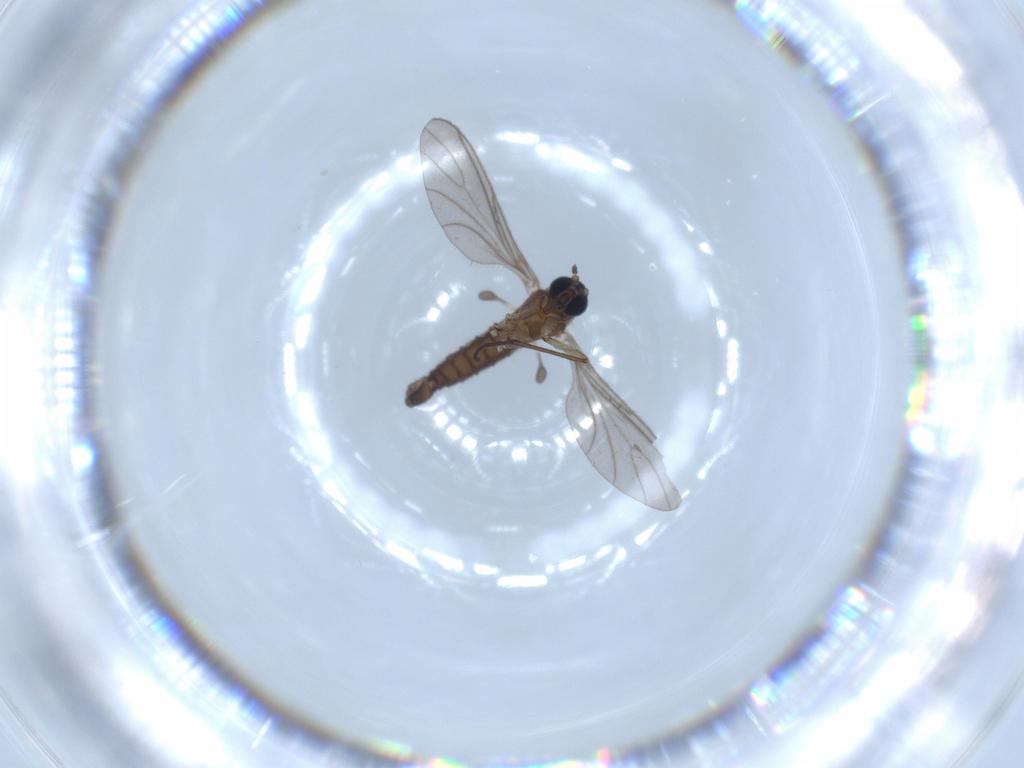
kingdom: Animalia
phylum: Arthropoda
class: Insecta
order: Diptera
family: Sciaridae
